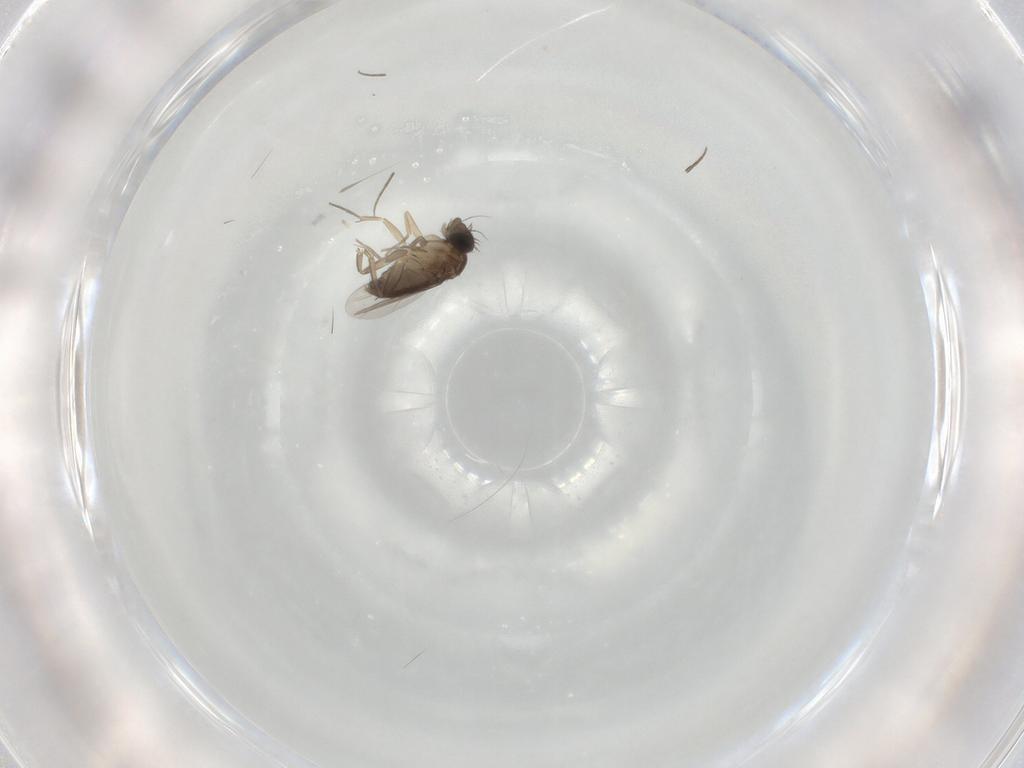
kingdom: Animalia
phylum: Arthropoda
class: Insecta
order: Diptera
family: Phoridae
